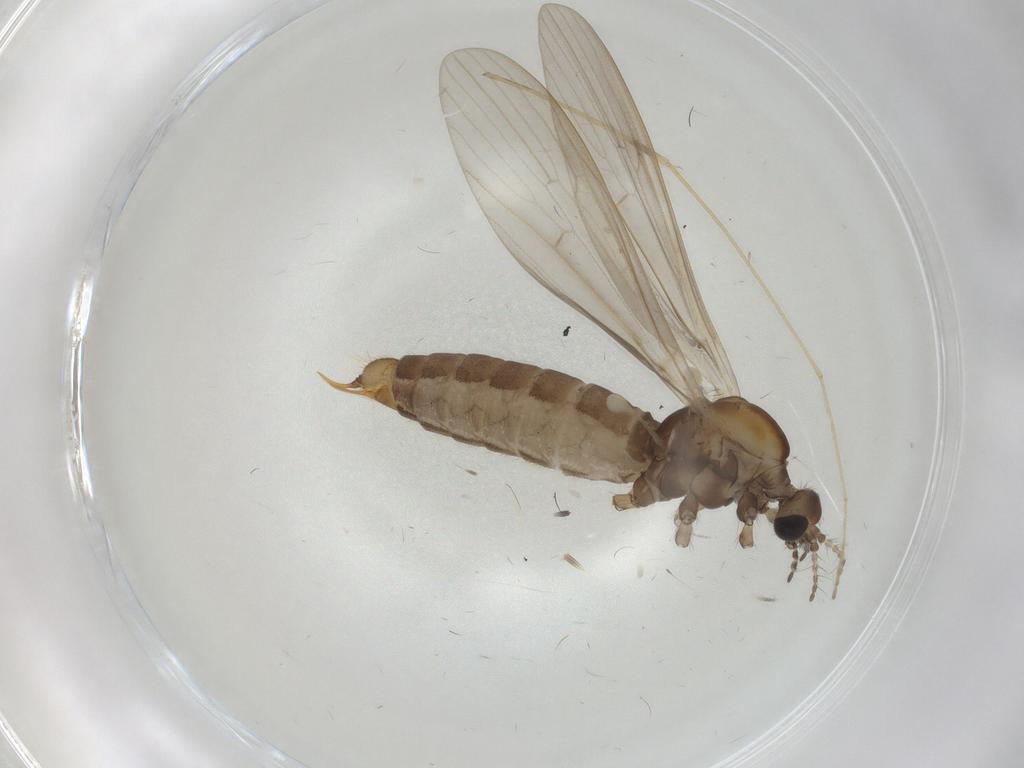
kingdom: Animalia
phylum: Arthropoda
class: Insecta
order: Diptera
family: Chironomidae
